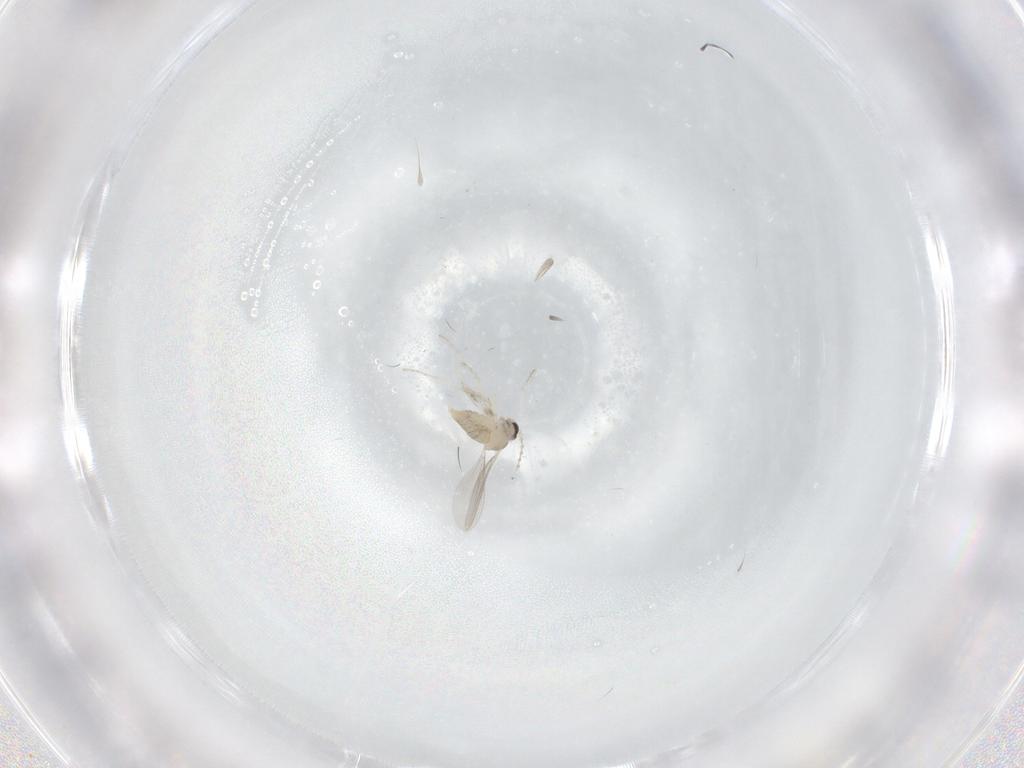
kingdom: Animalia
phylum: Arthropoda
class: Insecta
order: Diptera
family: Cecidomyiidae
